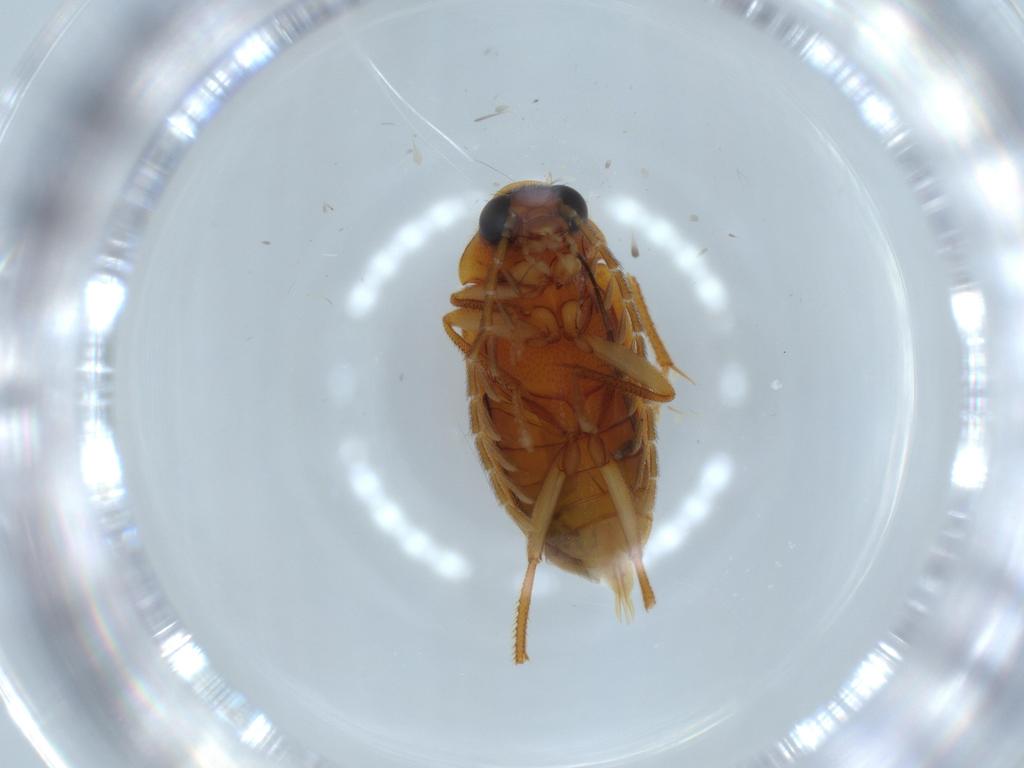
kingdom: Animalia
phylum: Arthropoda
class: Insecta
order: Coleoptera
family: Corylophidae
